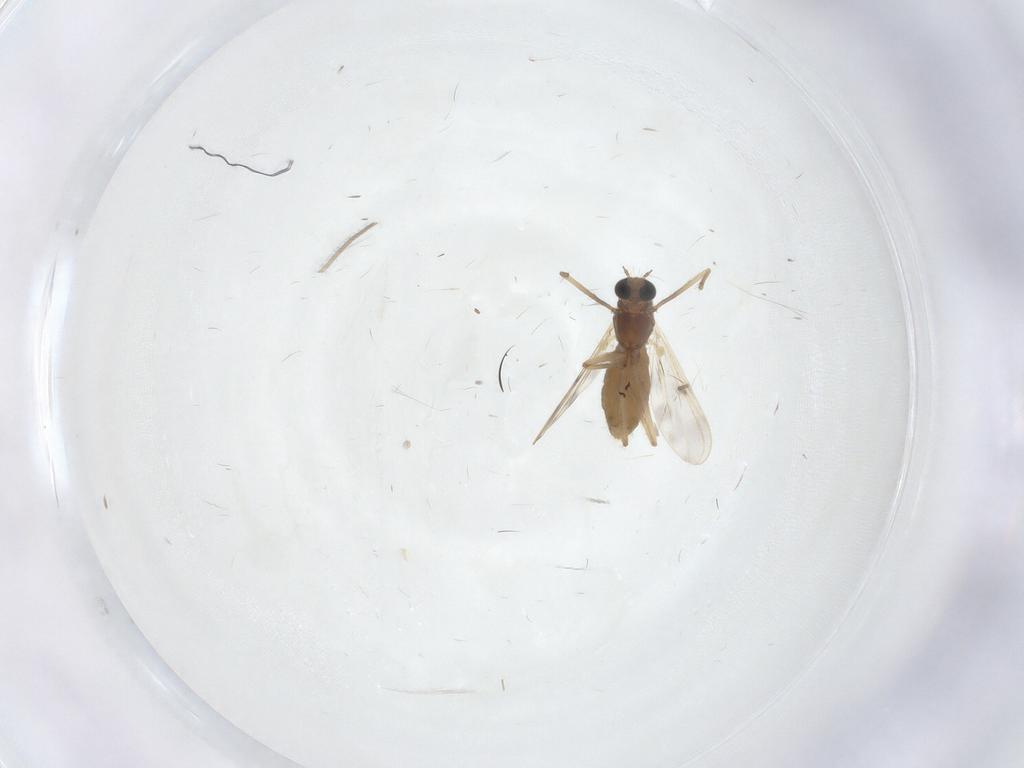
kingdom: Animalia
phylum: Arthropoda
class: Insecta
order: Diptera
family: Chironomidae
